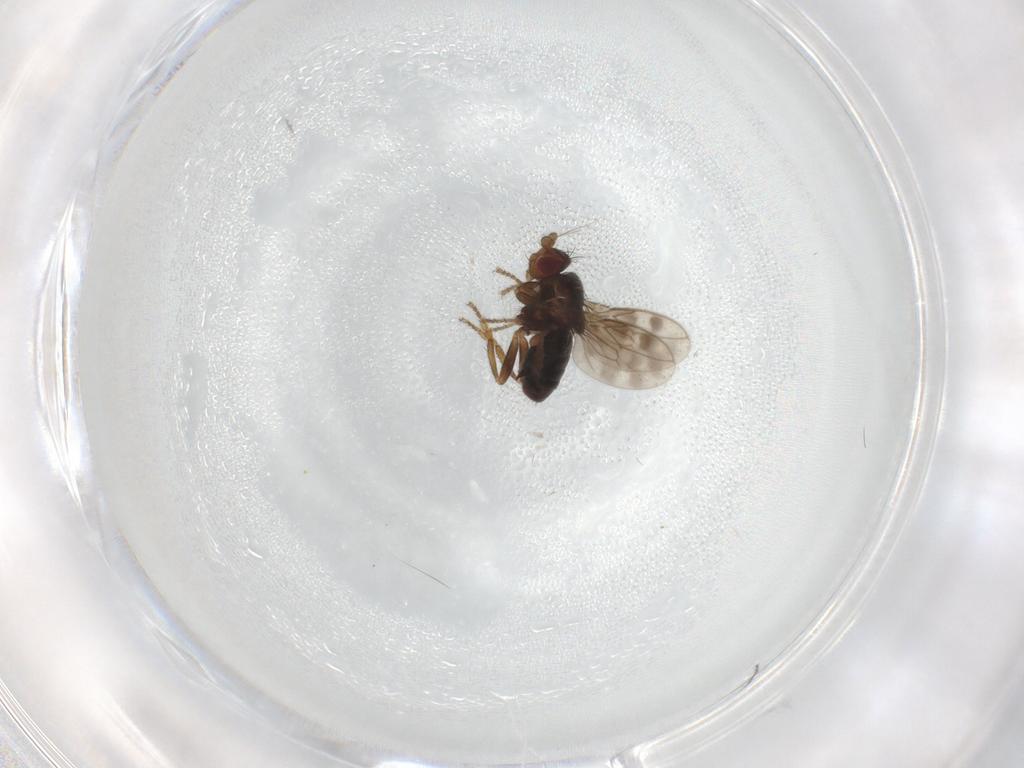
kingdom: Animalia
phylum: Arthropoda
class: Insecta
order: Diptera
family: Sphaeroceridae
